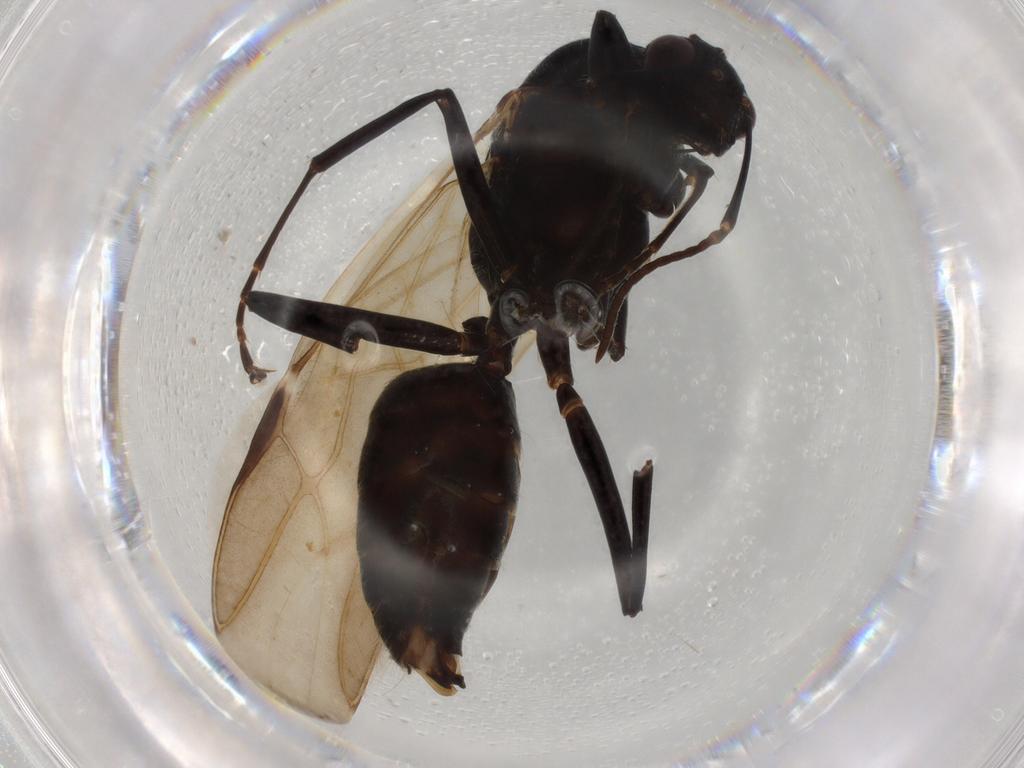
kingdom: Animalia
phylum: Arthropoda
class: Insecta
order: Hymenoptera
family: Formicidae
